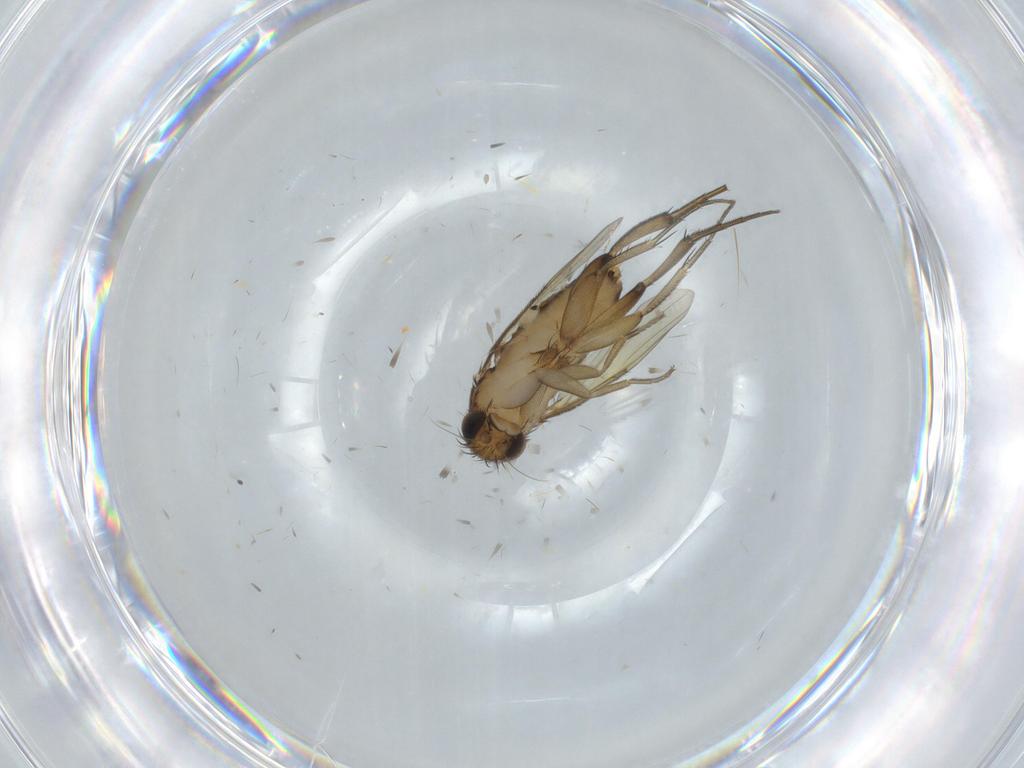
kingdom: Animalia
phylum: Arthropoda
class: Insecta
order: Diptera
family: Phoridae
